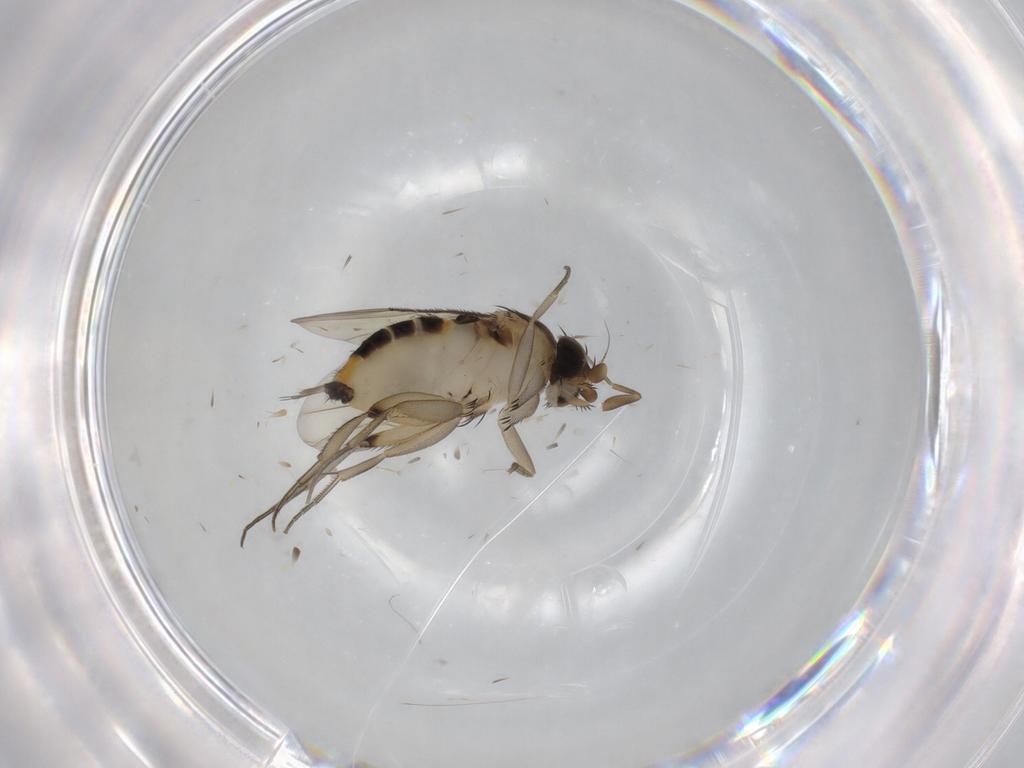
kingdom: Animalia
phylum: Arthropoda
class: Insecta
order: Diptera
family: Phoridae
